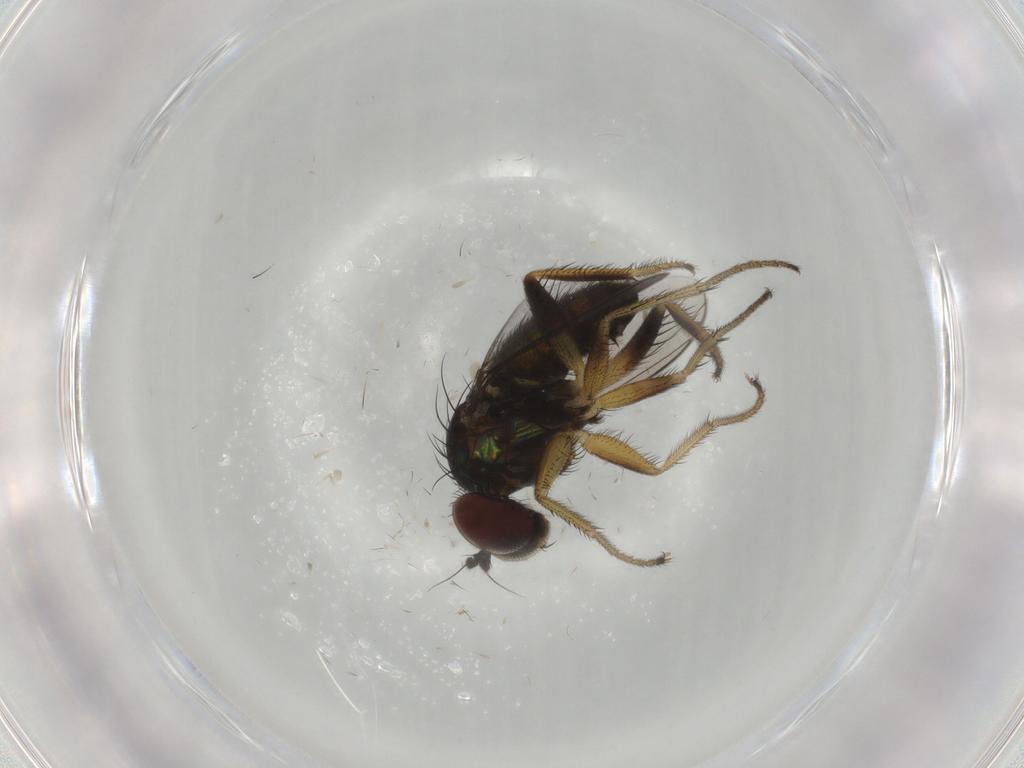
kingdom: Animalia
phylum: Arthropoda
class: Insecta
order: Diptera
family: Dolichopodidae
